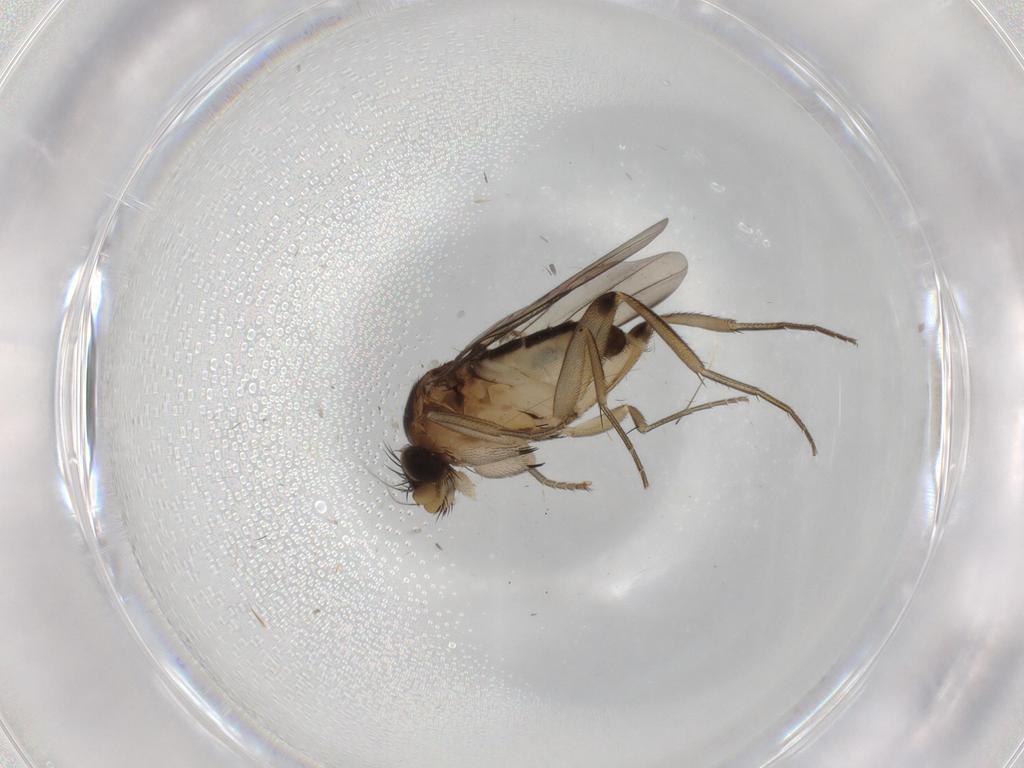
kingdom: Animalia
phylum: Arthropoda
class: Insecta
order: Diptera
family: Phoridae
